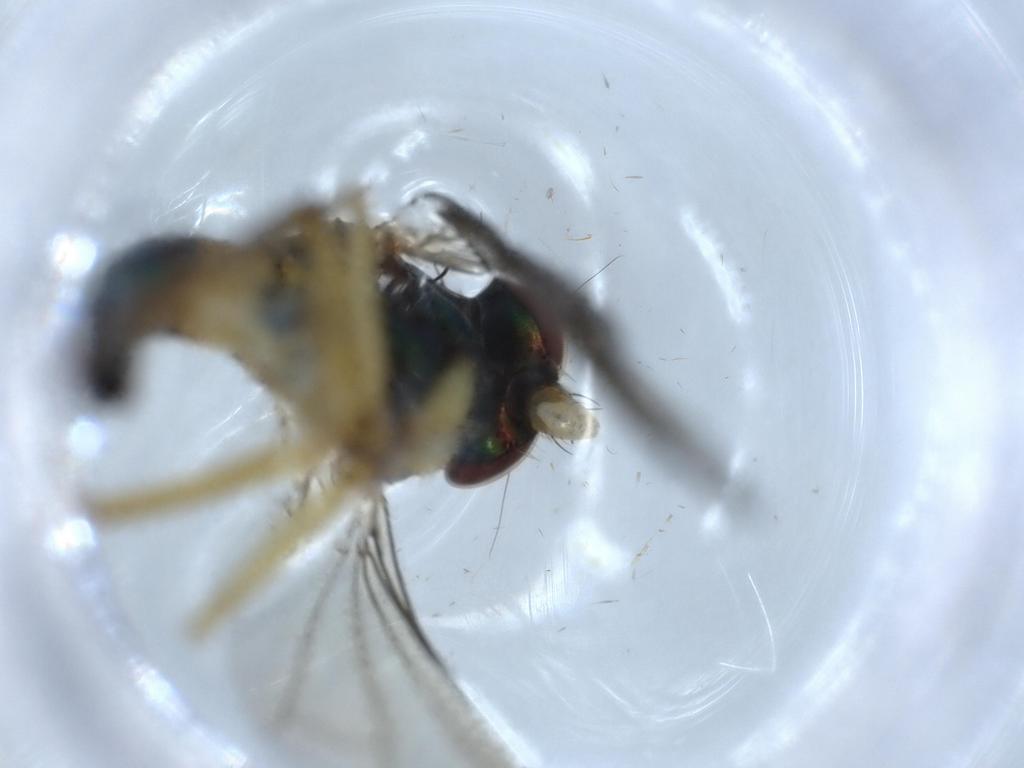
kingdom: Animalia
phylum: Arthropoda
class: Insecta
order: Diptera
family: Dolichopodidae
